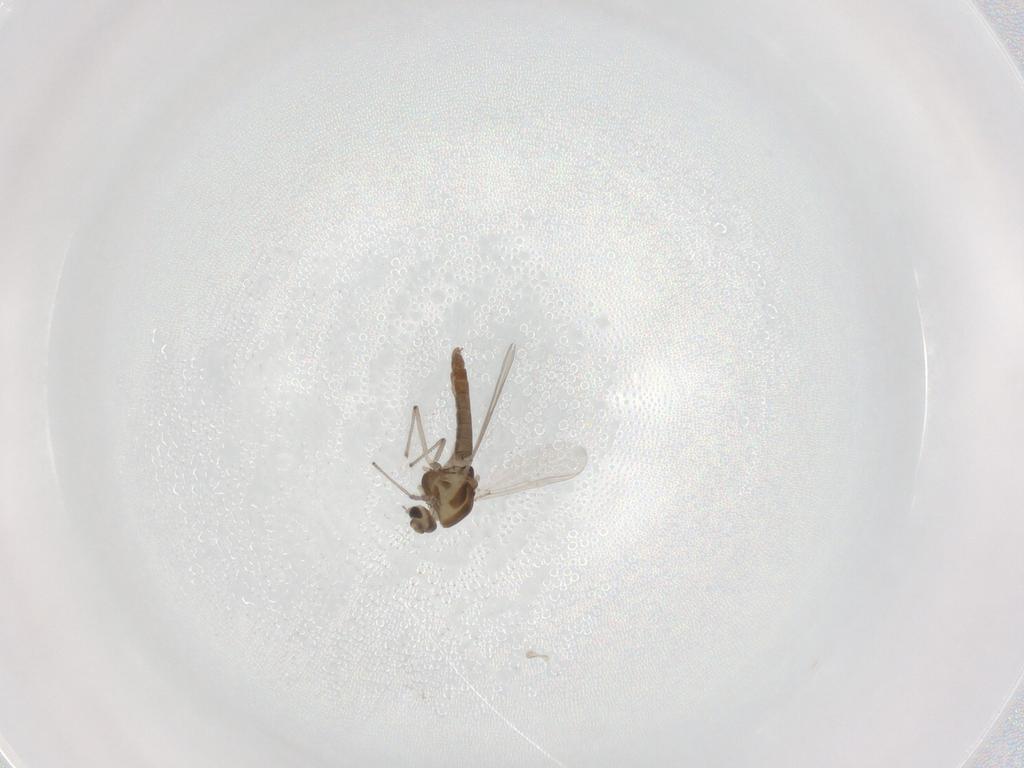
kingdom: Animalia
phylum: Arthropoda
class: Insecta
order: Diptera
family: Chironomidae
